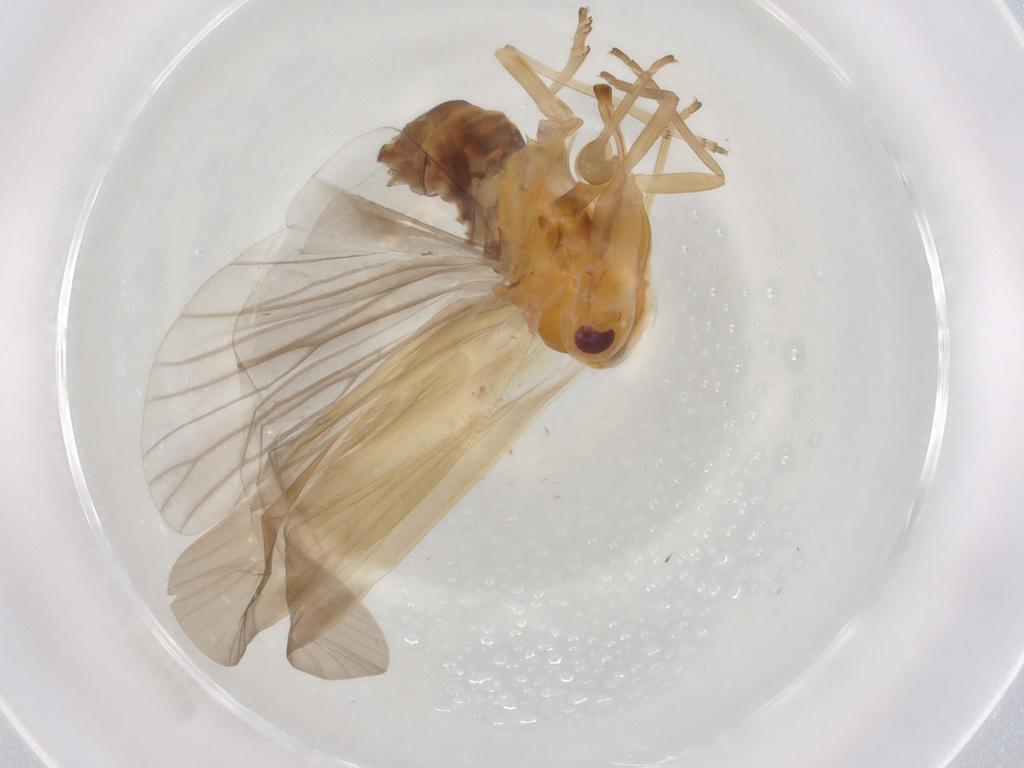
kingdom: Animalia
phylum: Arthropoda
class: Insecta
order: Hemiptera
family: Derbidae
